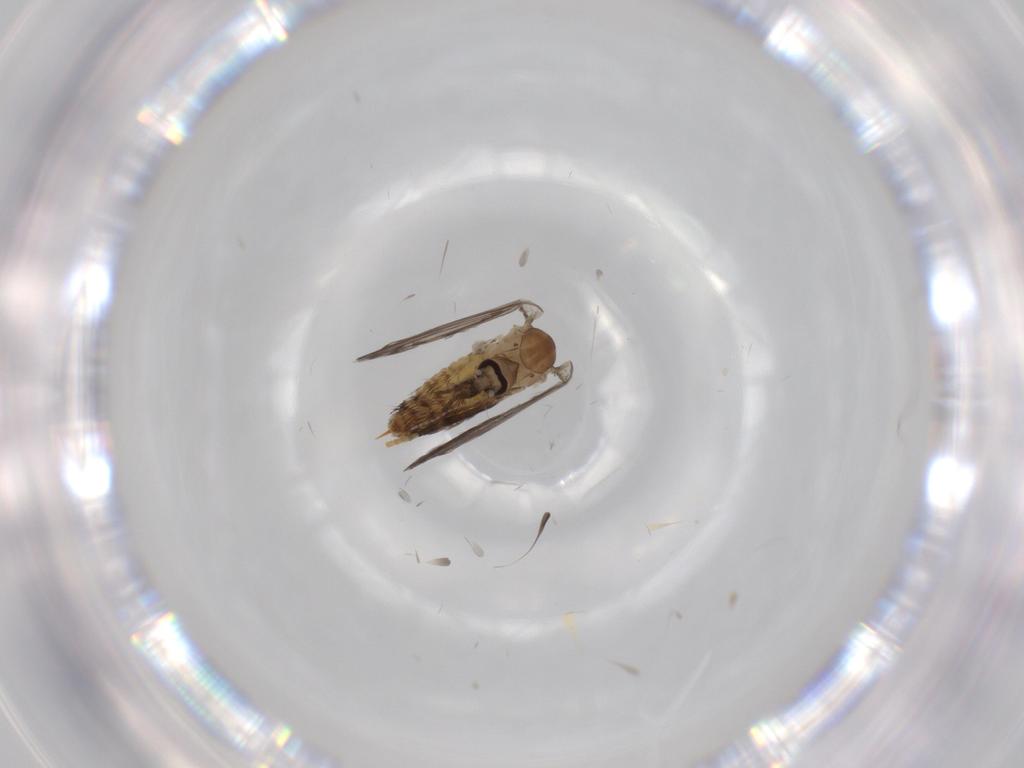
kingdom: Animalia
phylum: Arthropoda
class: Insecta
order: Diptera
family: Psychodidae
